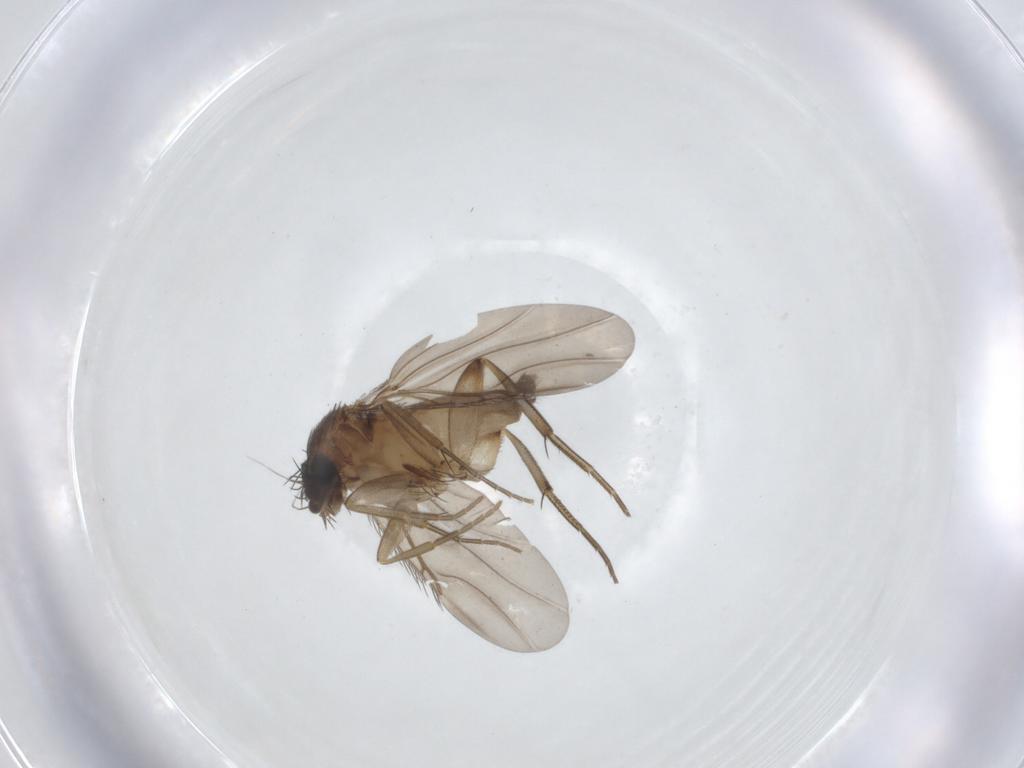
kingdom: Animalia
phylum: Arthropoda
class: Insecta
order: Diptera
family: Phoridae
